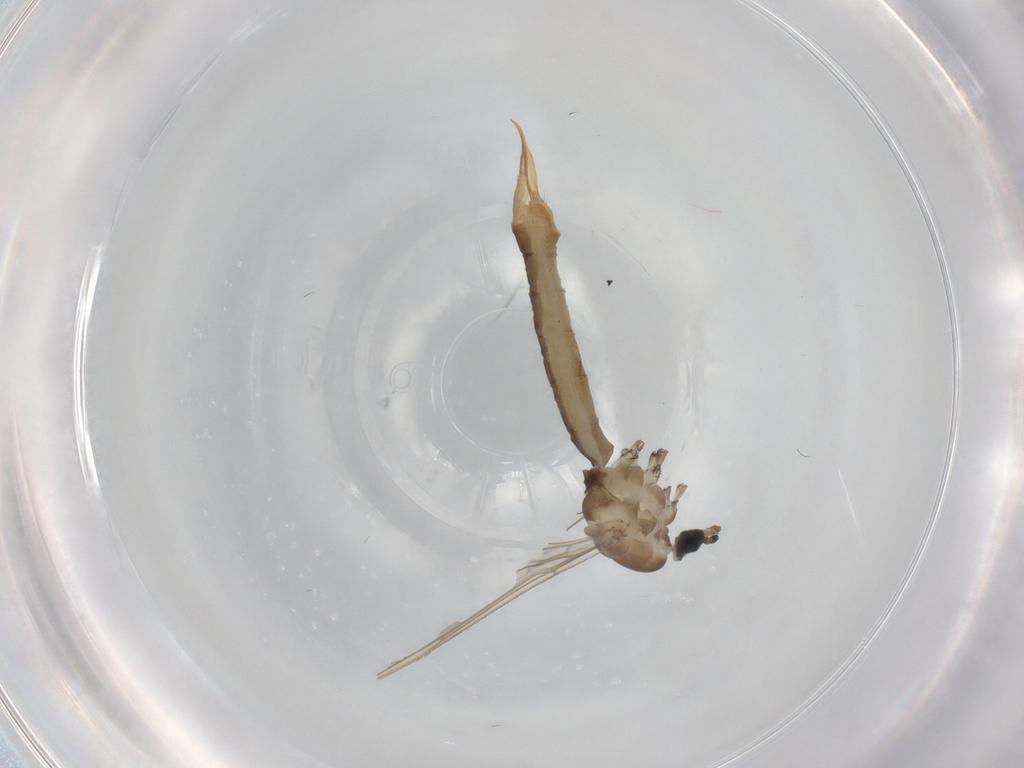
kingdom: Animalia
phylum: Arthropoda
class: Insecta
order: Diptera
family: Limoniidae
